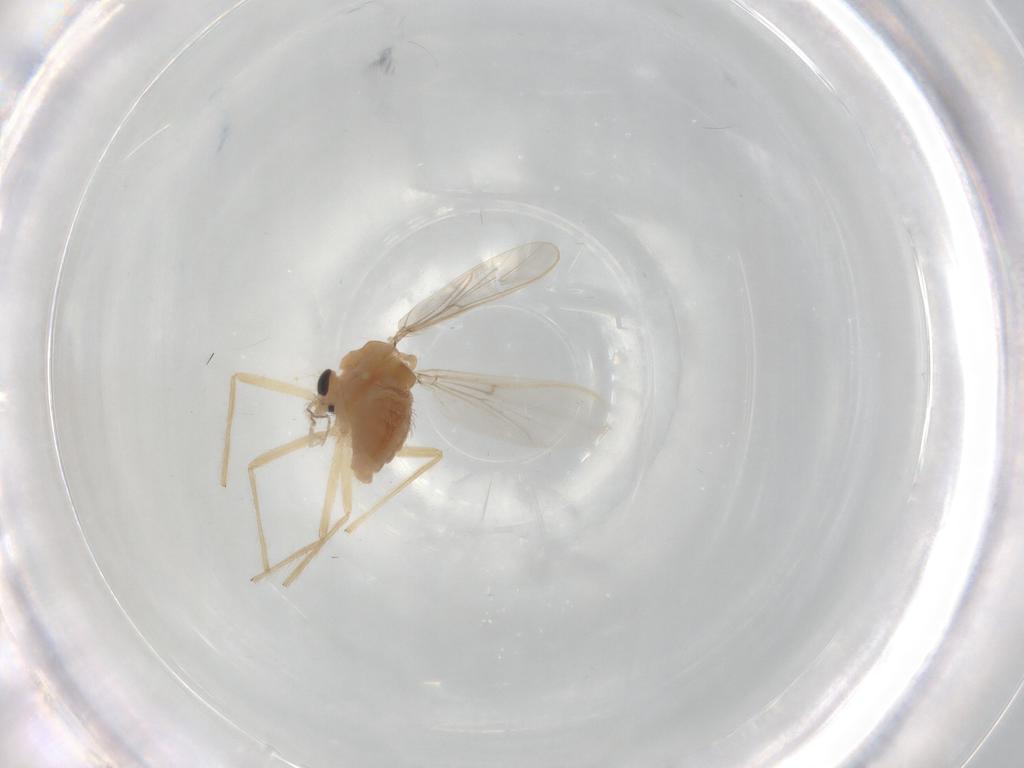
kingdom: Animalia
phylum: Arthropoda
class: Insecta
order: Diptera
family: Chironomidae
